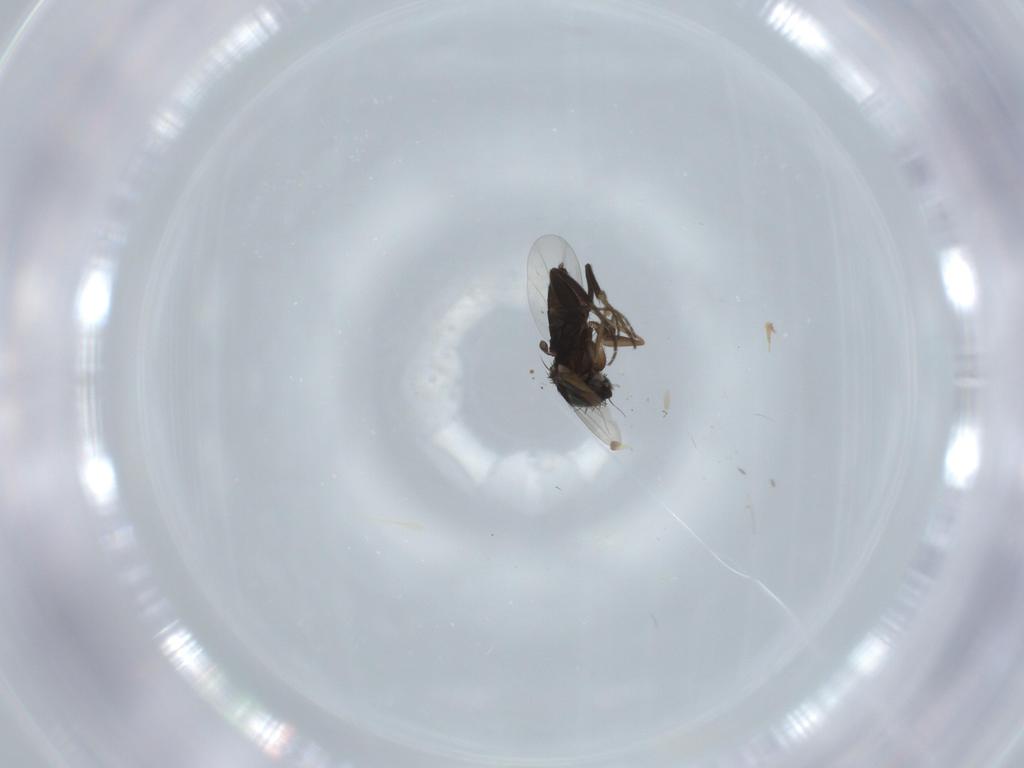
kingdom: Animalia
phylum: Arthropoda
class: Insecta
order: Diptera
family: Phoridae
